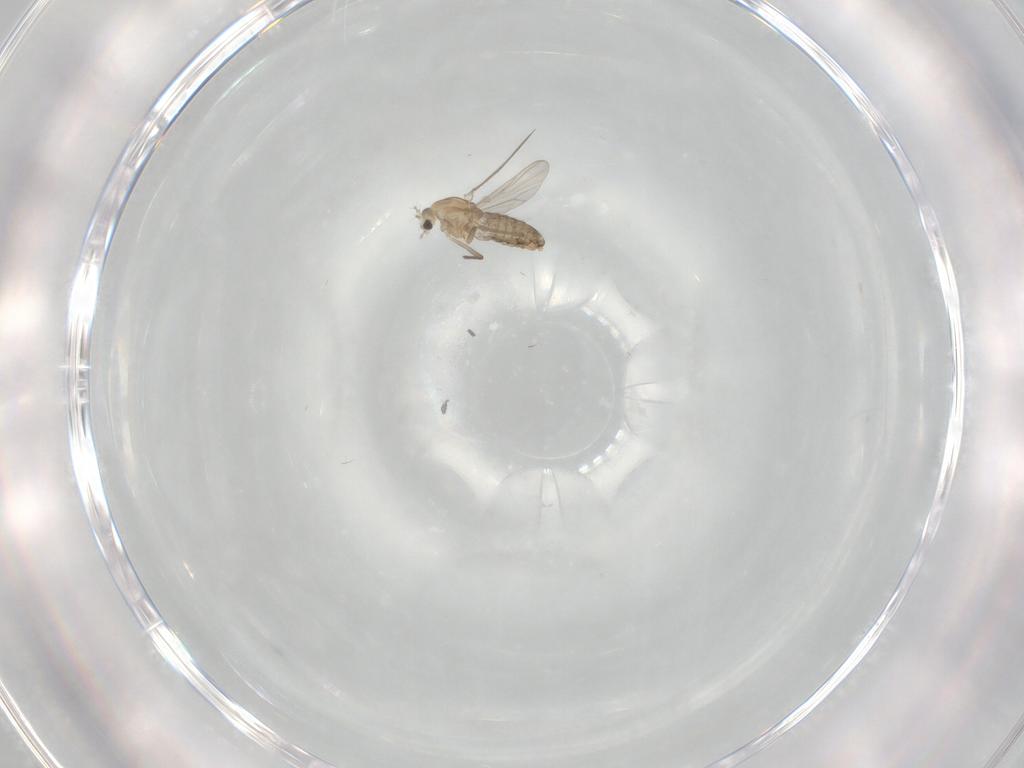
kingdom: Animalia
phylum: Arthropoda
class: Insecta
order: Diptera
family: Chironomidae
